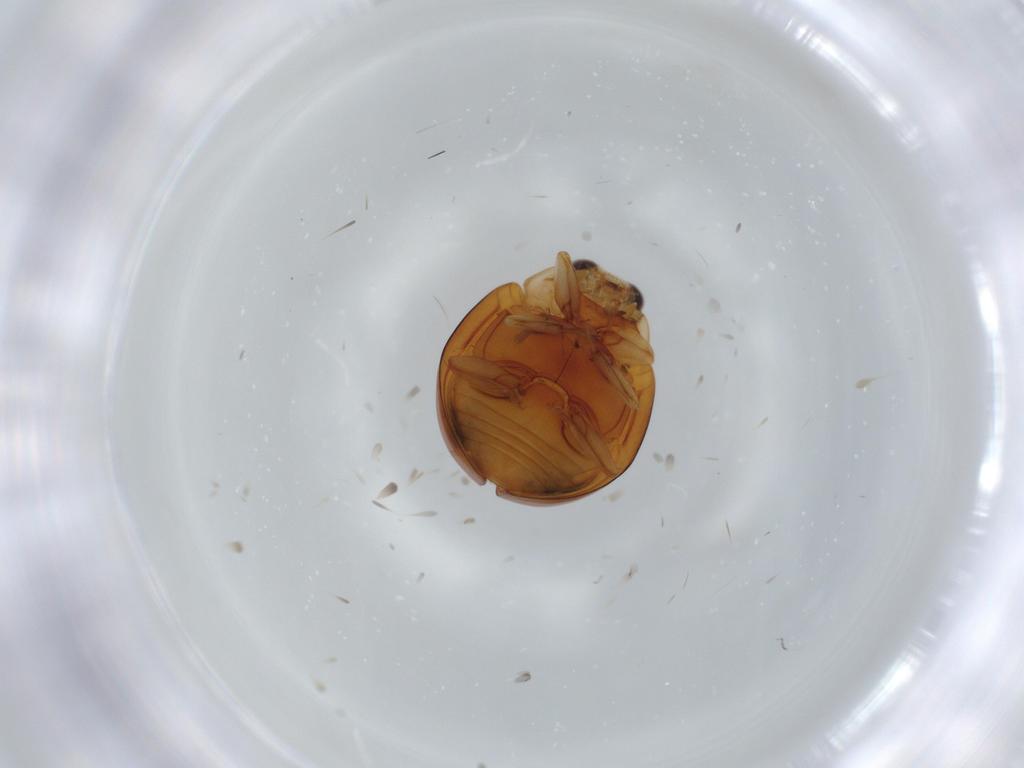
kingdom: Animalia
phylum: Arthropoda
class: Insecta
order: Coleoptera
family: Coccinellidae
